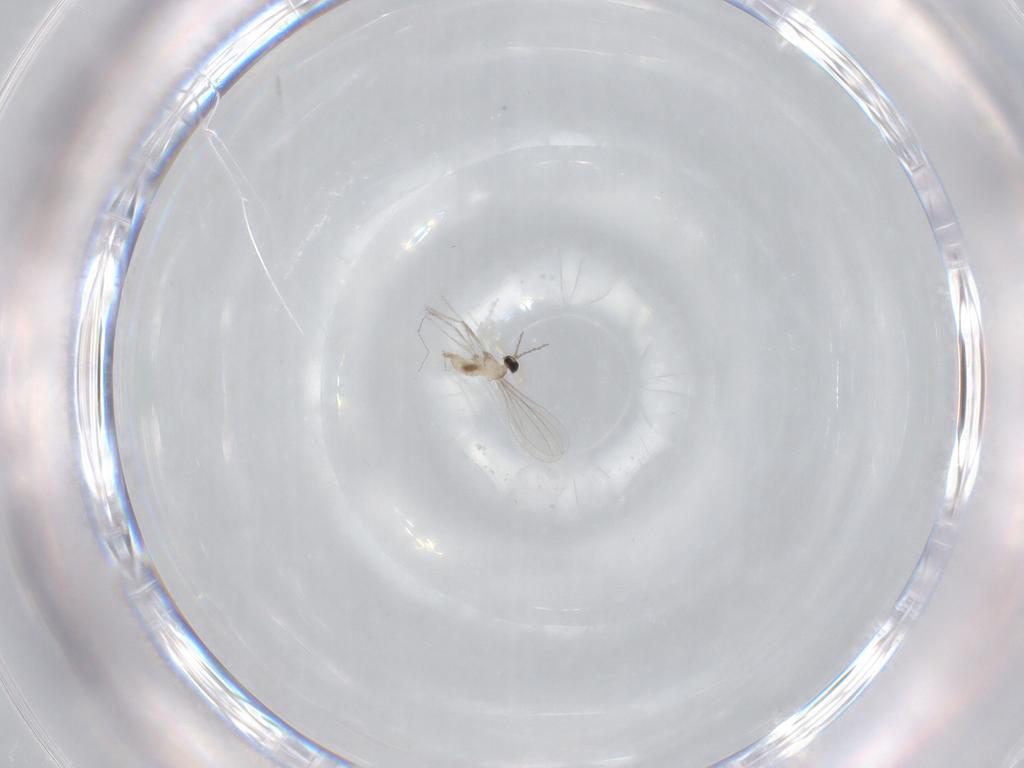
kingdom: Animalia
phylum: Arthropoda
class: Insecta
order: Diptera
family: Cecidomyiidae
